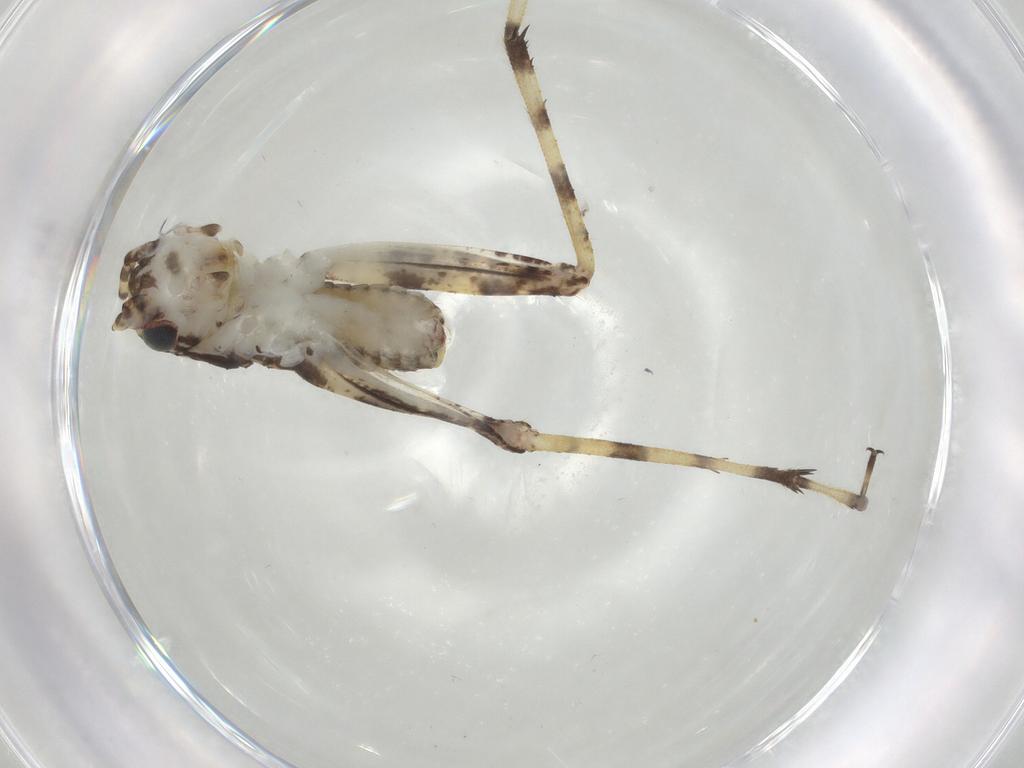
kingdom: Animalia
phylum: Arthropoda
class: Insecta
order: Orthoptera
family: Gryllidae
